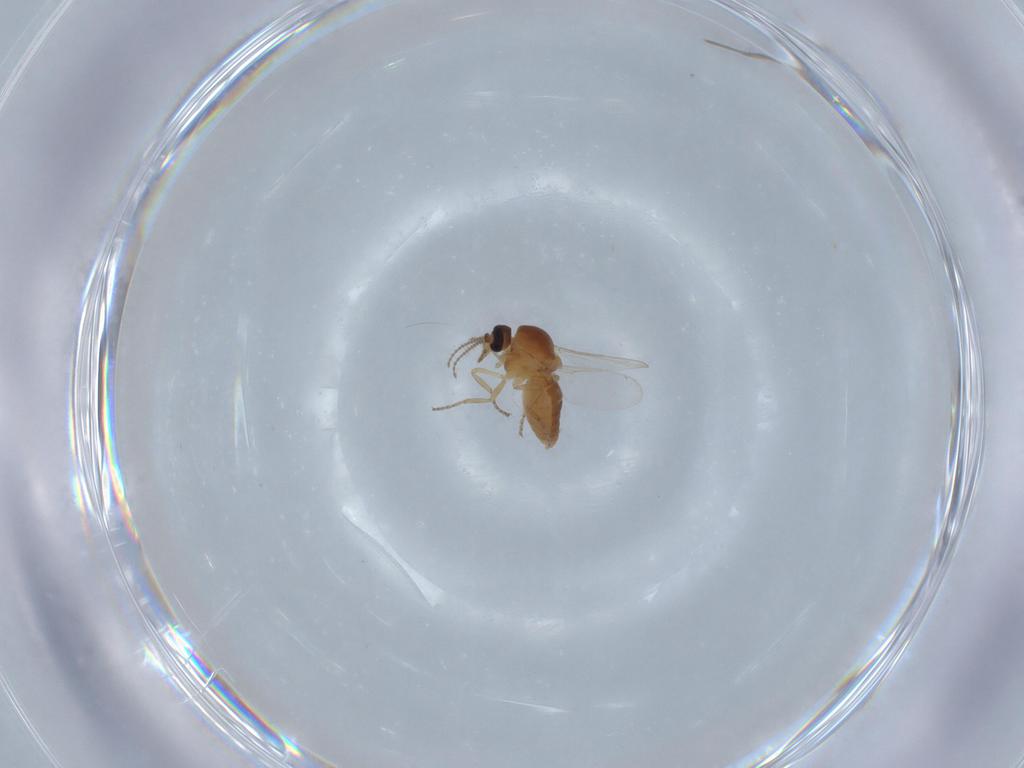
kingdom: Animalia
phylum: Arthropoda
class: Insecta
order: Diptera
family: Ceratopogonidae
